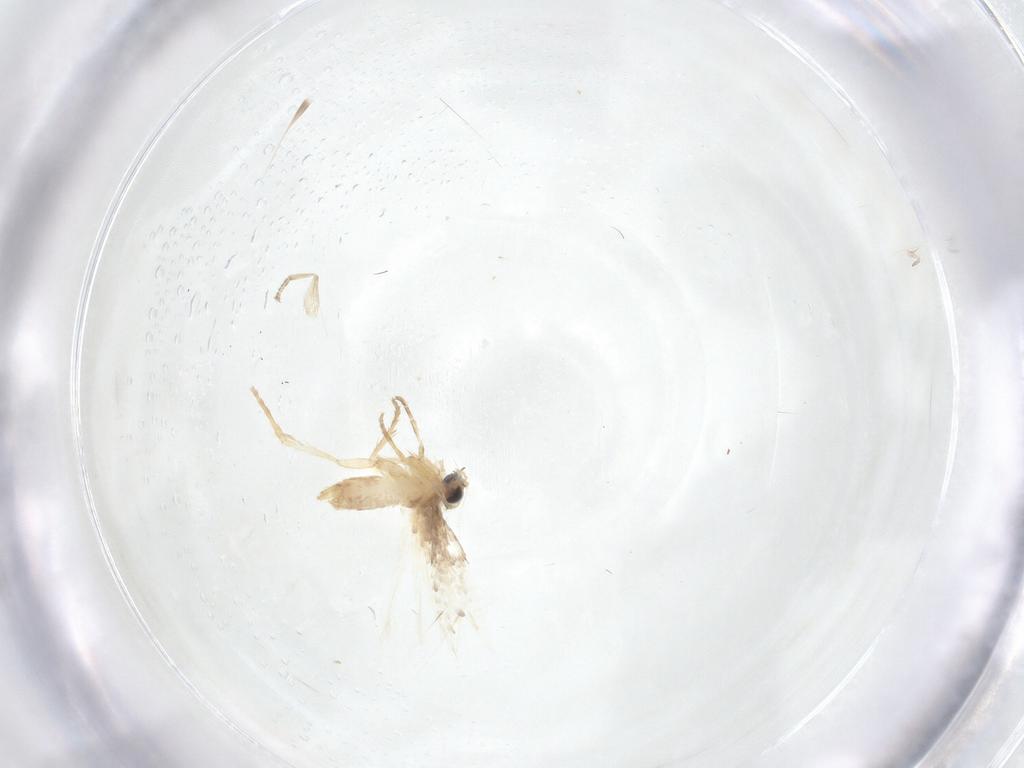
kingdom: Animalia
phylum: Arthropoda
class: Insecta
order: Lepidoptera
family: Nepticulidae
